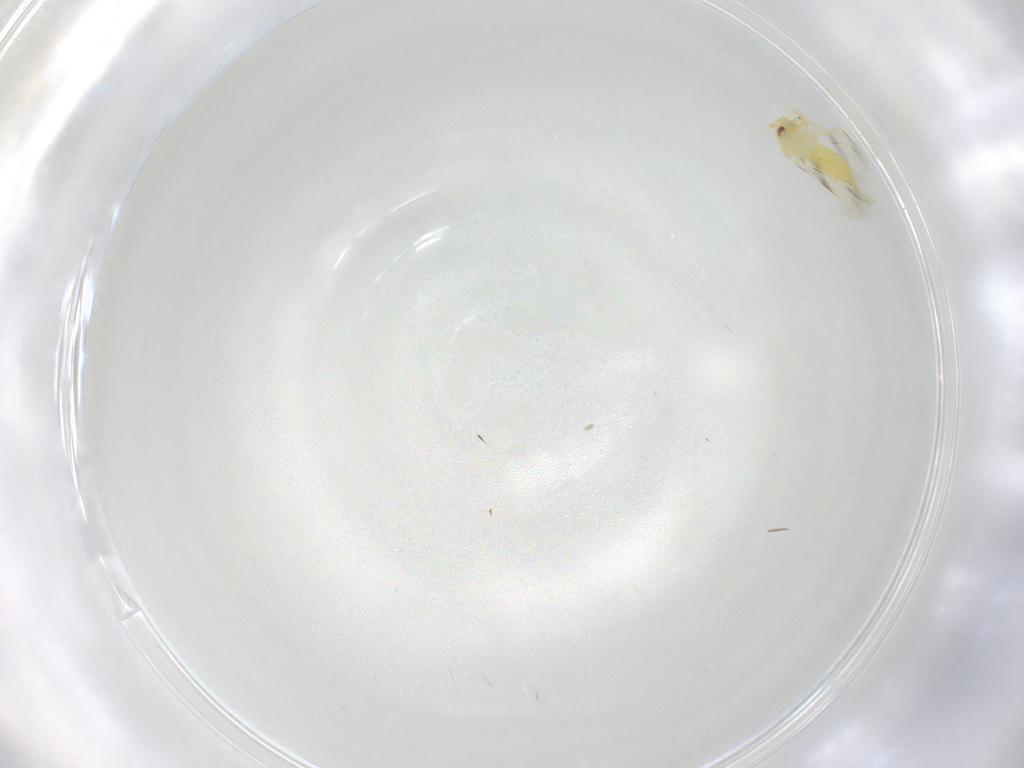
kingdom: Animalia
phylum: Arthropoda
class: Insecta
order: Hemiptera
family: Aleyrodidae
